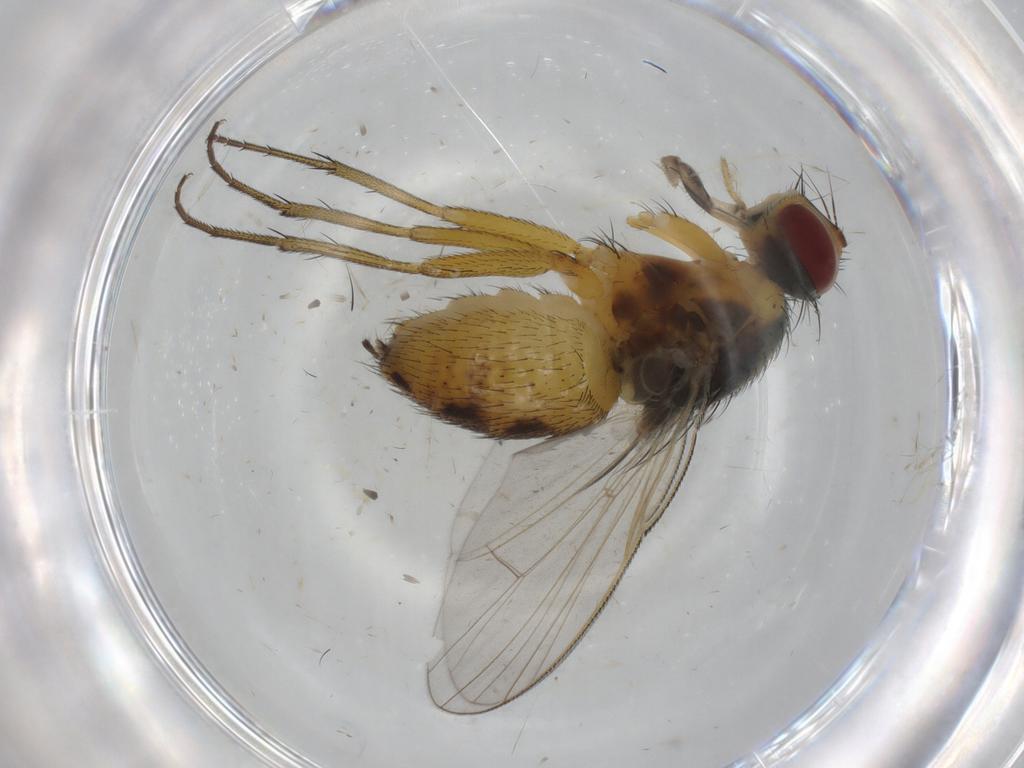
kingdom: Animalia
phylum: Arthropoda
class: Insecta
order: Diptera
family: Muscidae
